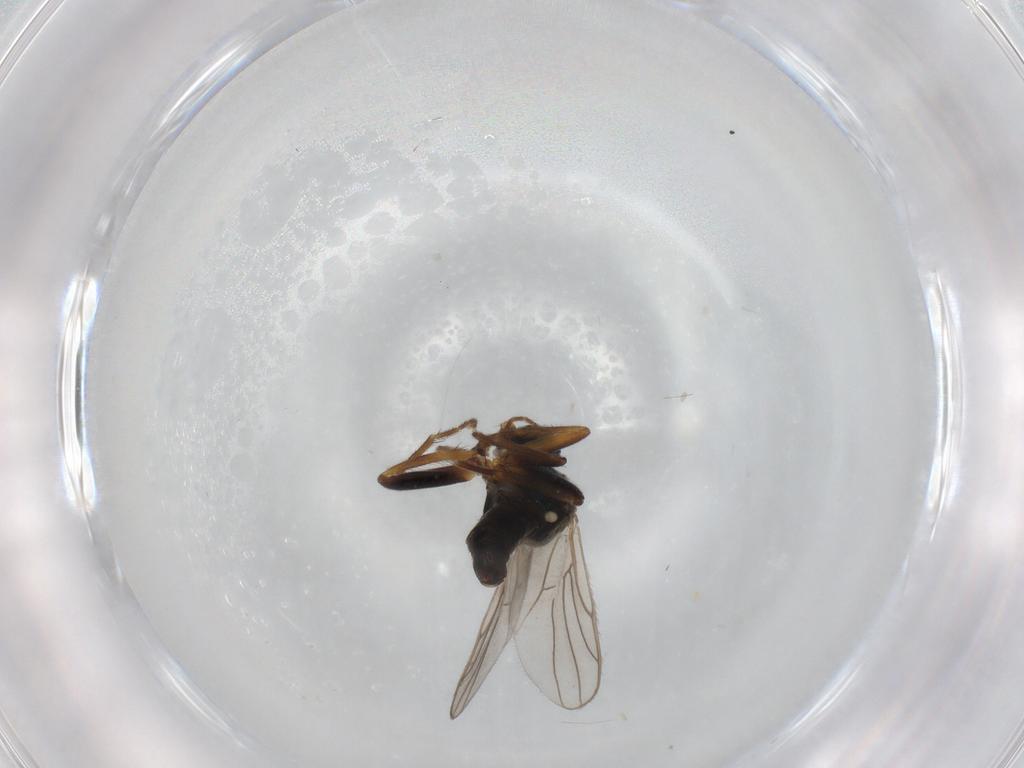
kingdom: Animalia
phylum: Arthropoda
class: Insecta
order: Diptera
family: Hybotidae
